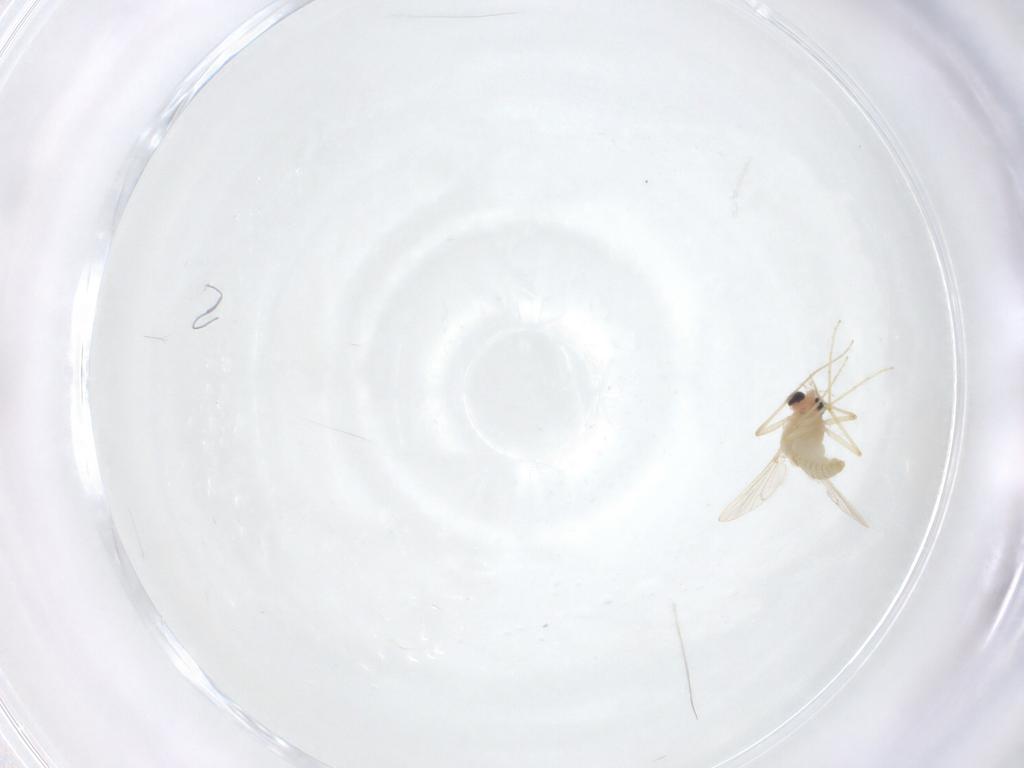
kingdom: Animalia
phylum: Arthropoda
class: Insecta
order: Diptera
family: Chironomidae
